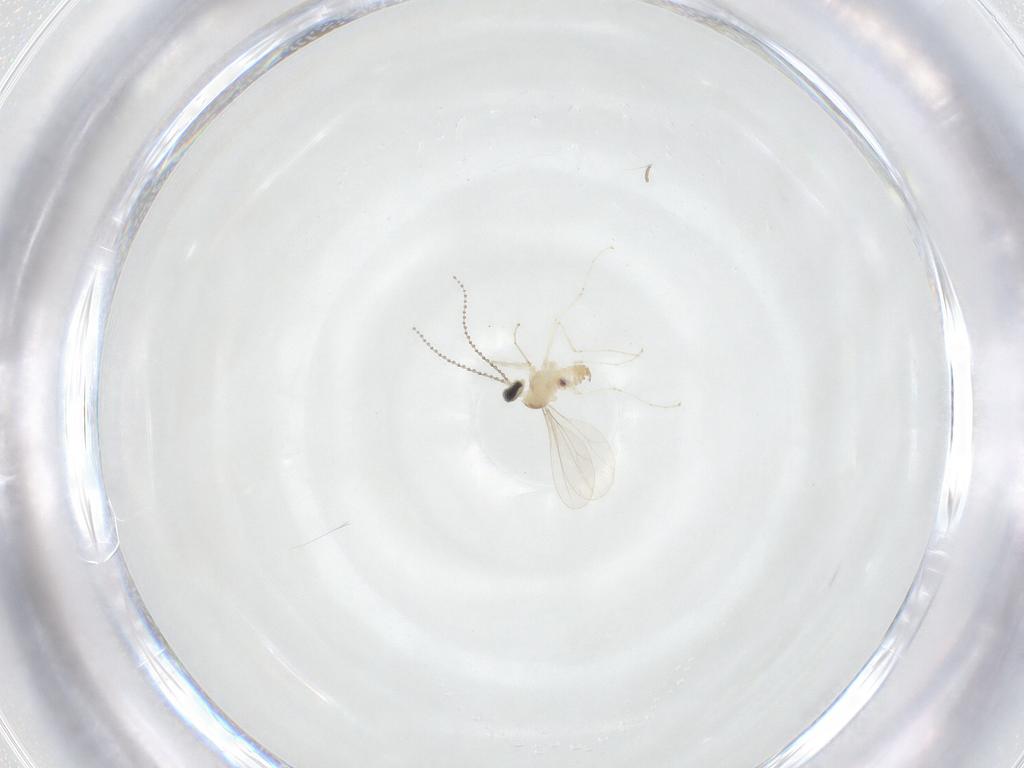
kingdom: Animalia
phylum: Arthropoda
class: Insecta
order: Diptera
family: Cecidomyiidae
